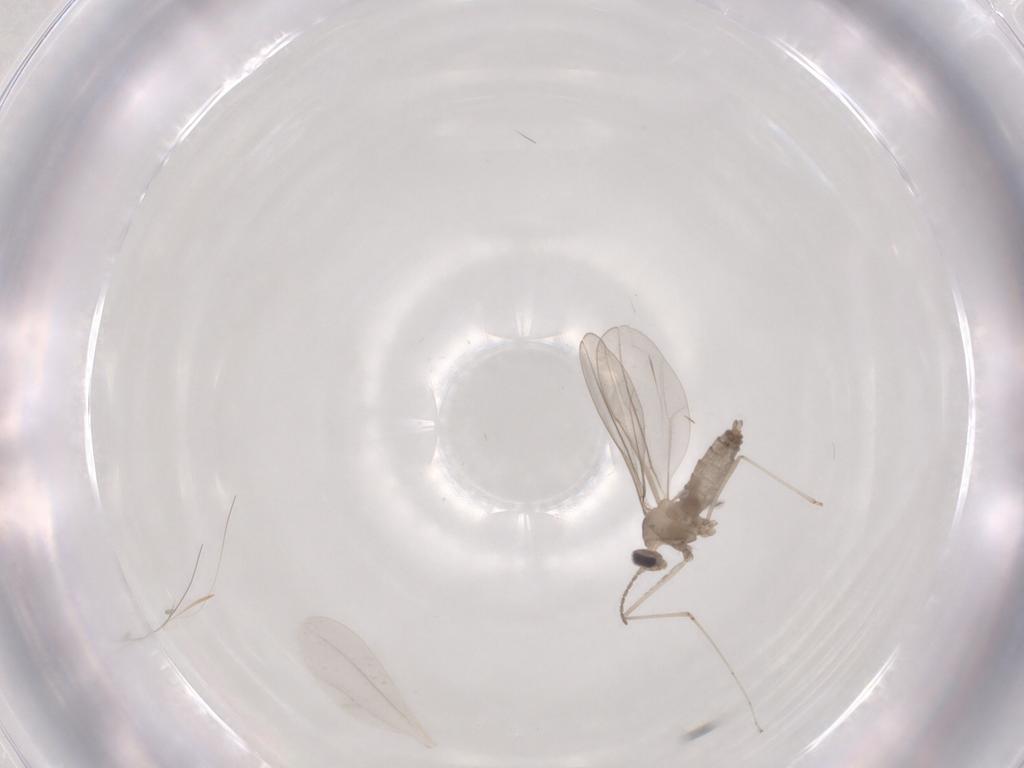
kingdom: Animalia
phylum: Arthropoda
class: Insecta
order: Diptera
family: Cecidomyiidae
